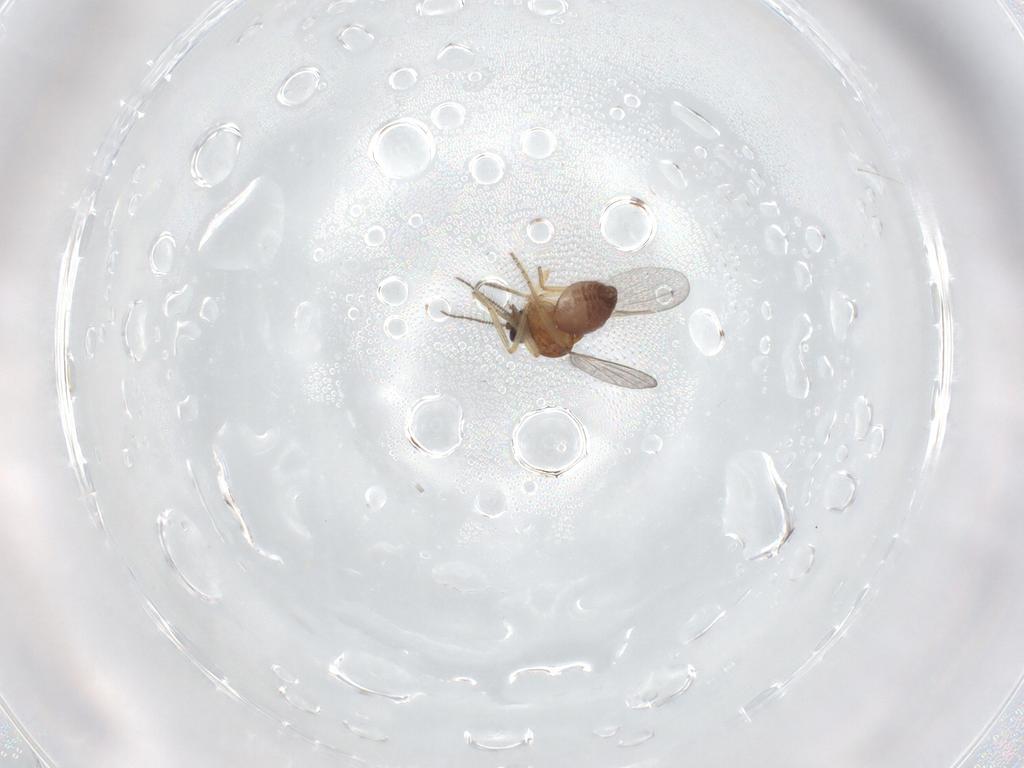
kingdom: Animalia
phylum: Arthropoda
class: Insecta
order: Diptera
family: Cecidomyiidae
